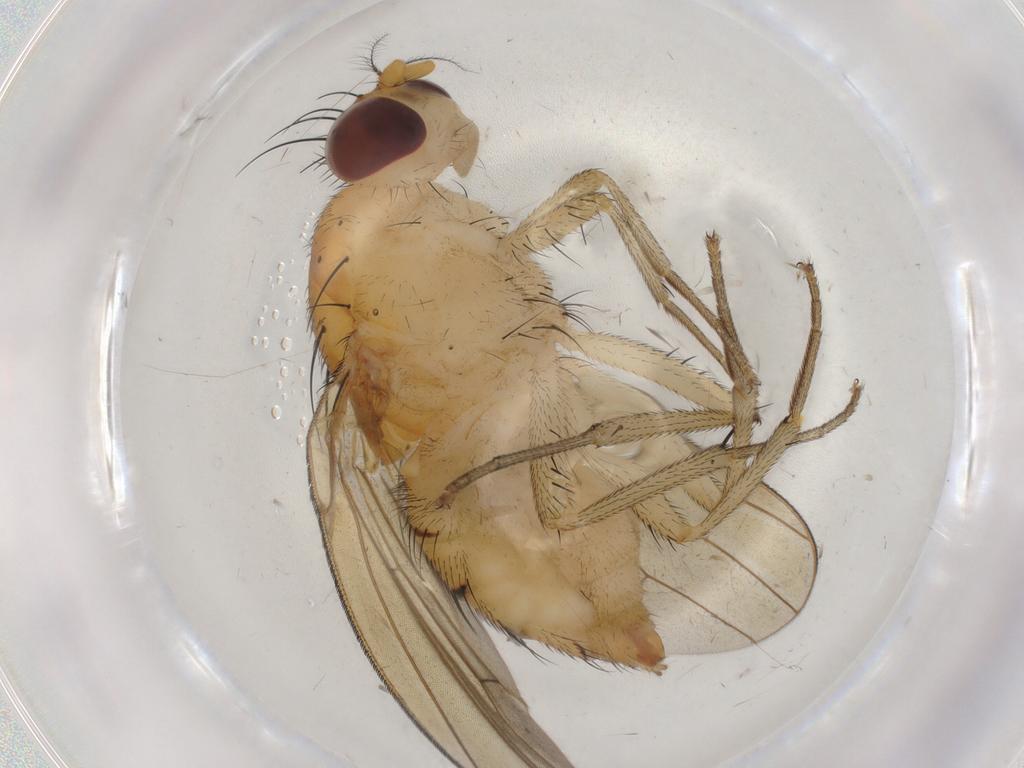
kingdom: Animalia
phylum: Arthropoda
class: Insecta
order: Diptera
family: Chloropidae
